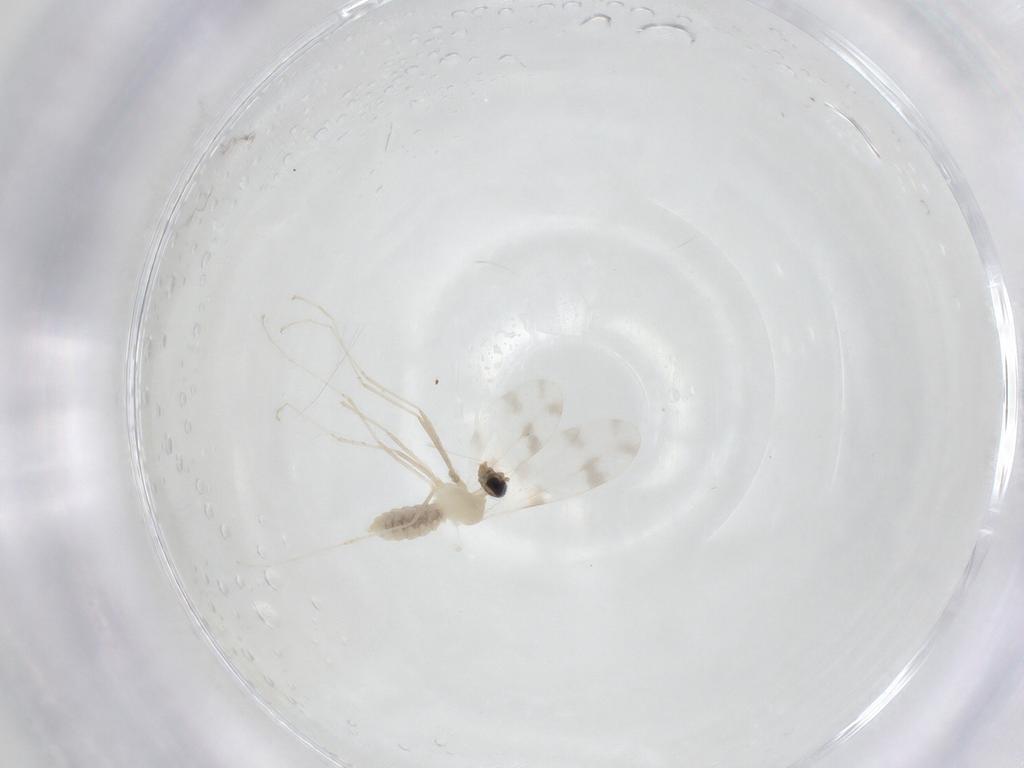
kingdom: Animalia
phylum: Arthropoda
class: Insecta
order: Diptera
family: Cecidomyiidae
